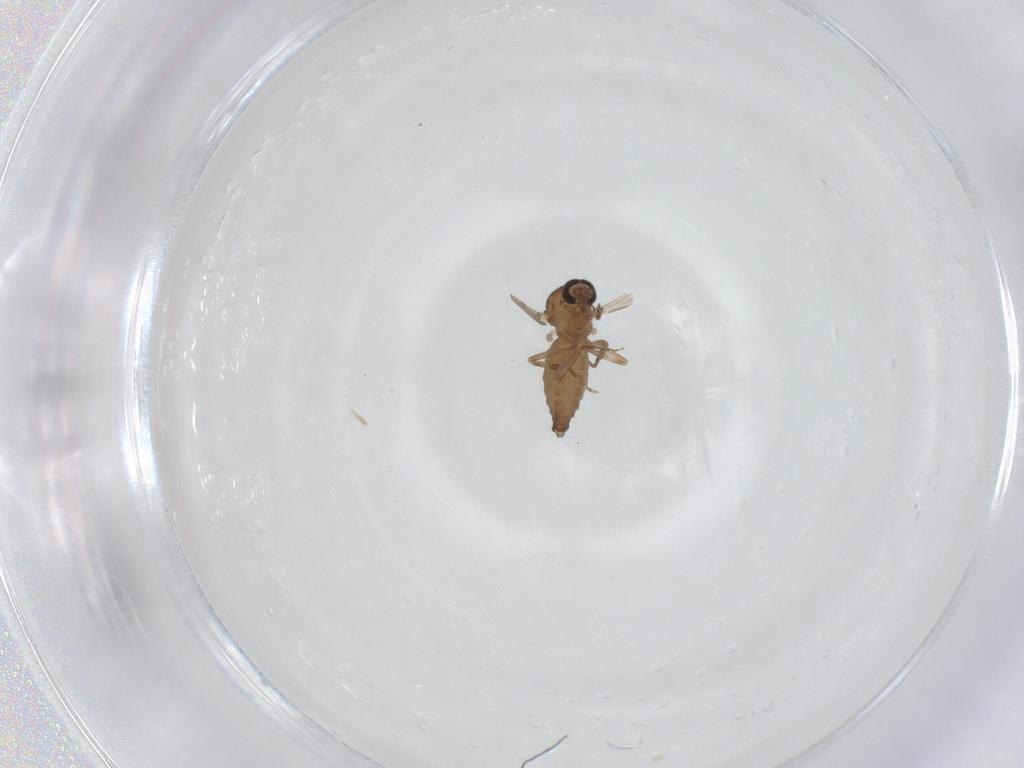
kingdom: Animalia
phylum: Arthropoda
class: Insecta
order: Diptera
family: Ceratopogonidae
